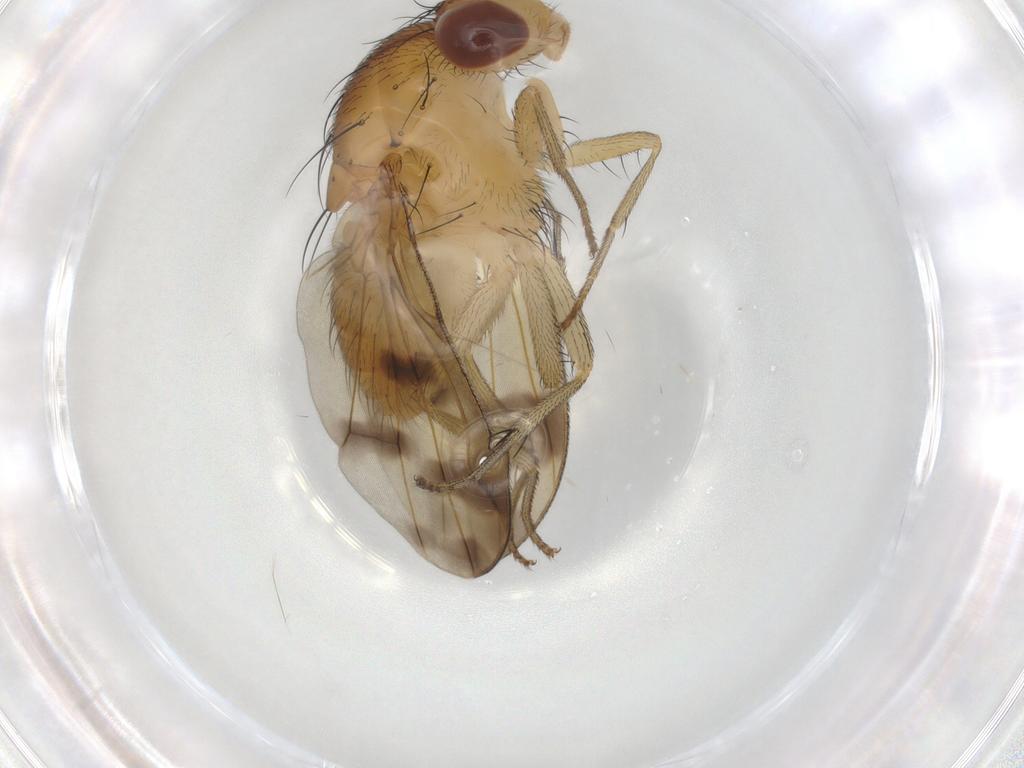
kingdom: Animalia
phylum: Arthropoda
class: Insecta
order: Diptera
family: Lauxaniidae
